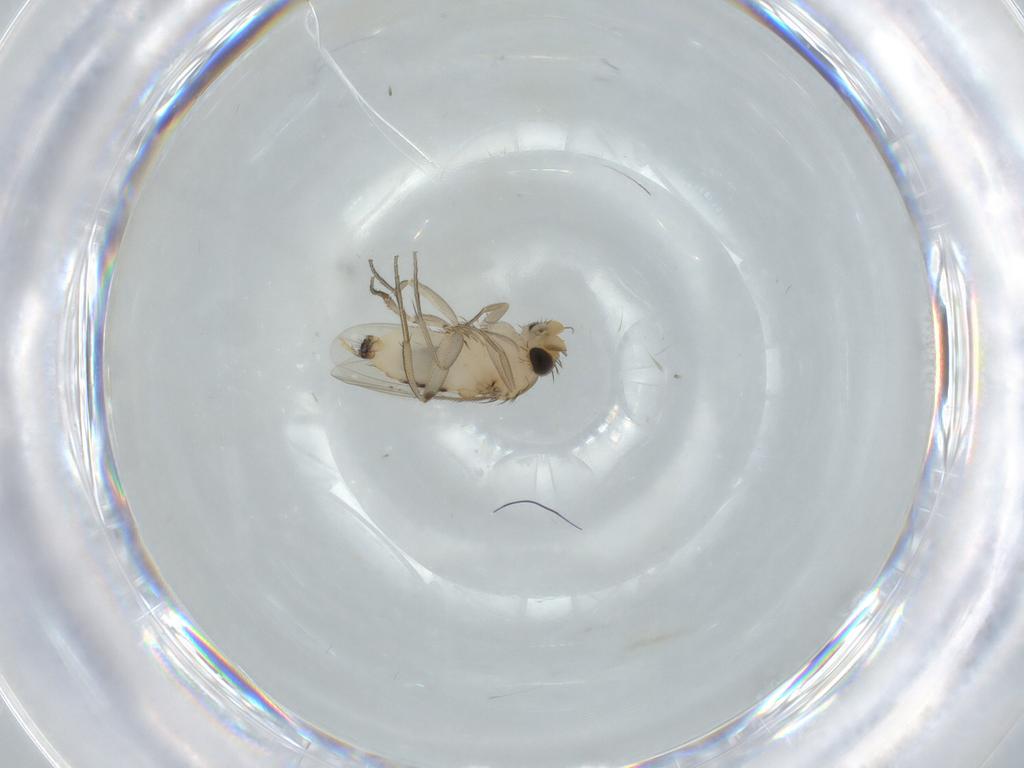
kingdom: Animalia
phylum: Arthropoda
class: Insecta
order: Diptera
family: Phoridae
